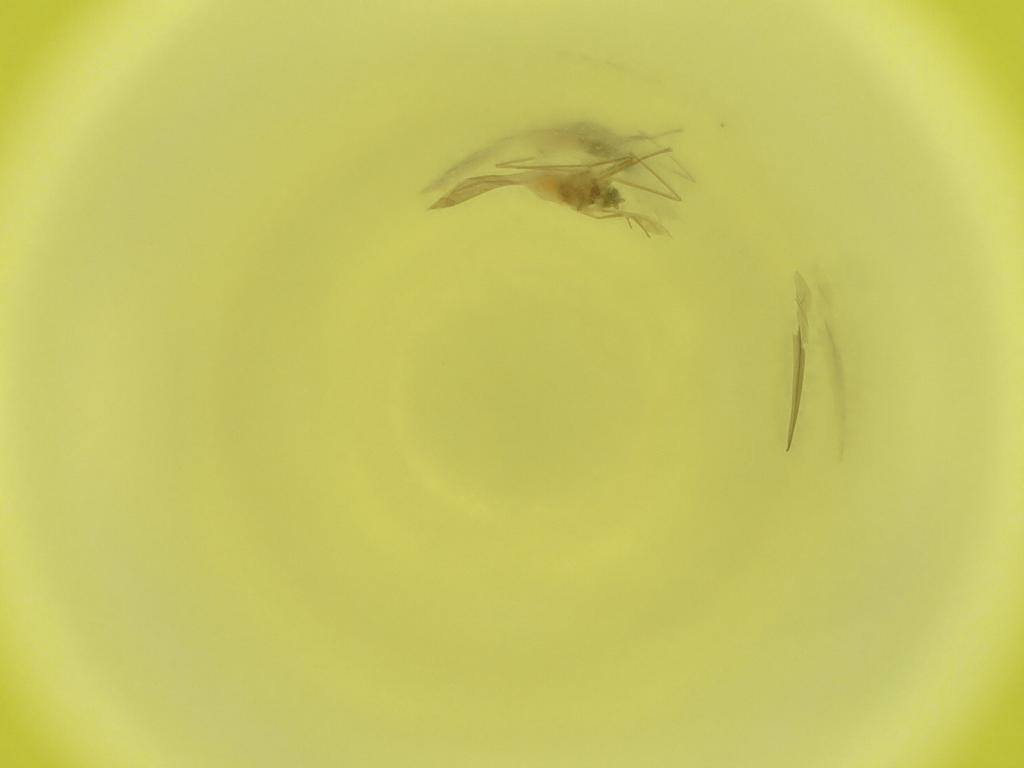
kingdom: Animalia
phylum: Arthropoda
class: Insecta
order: Diptera
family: Cecidomyiidae
